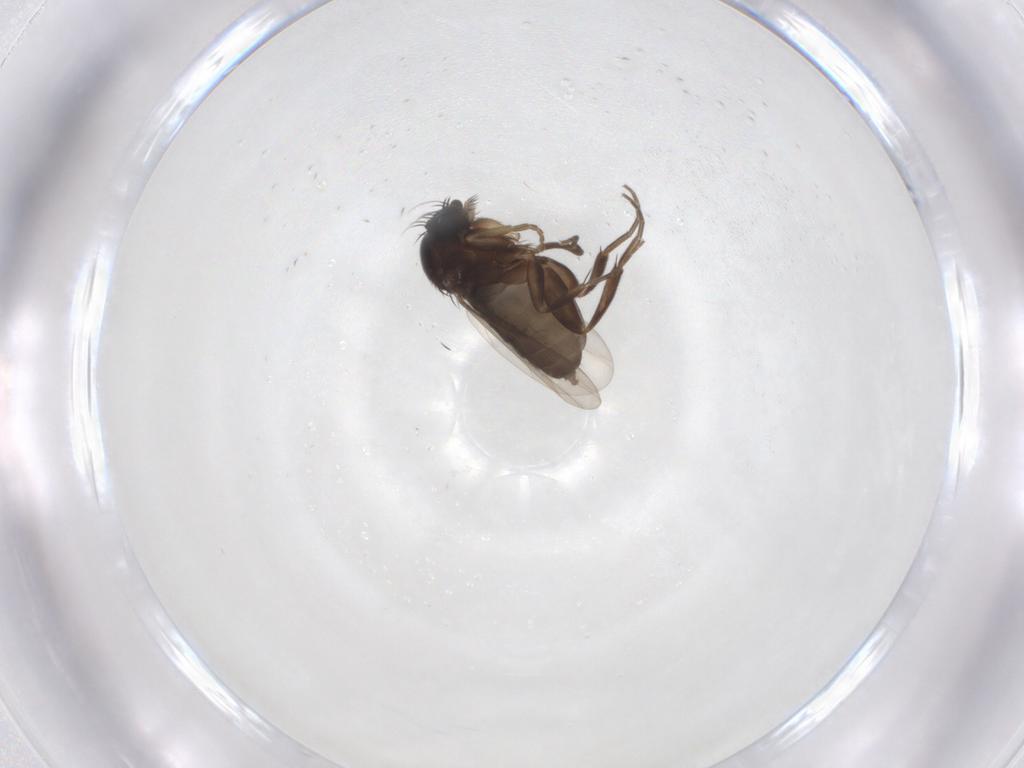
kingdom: Animalia
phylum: Arthropoda
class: Insecta
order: Diptera
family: Phoridae
